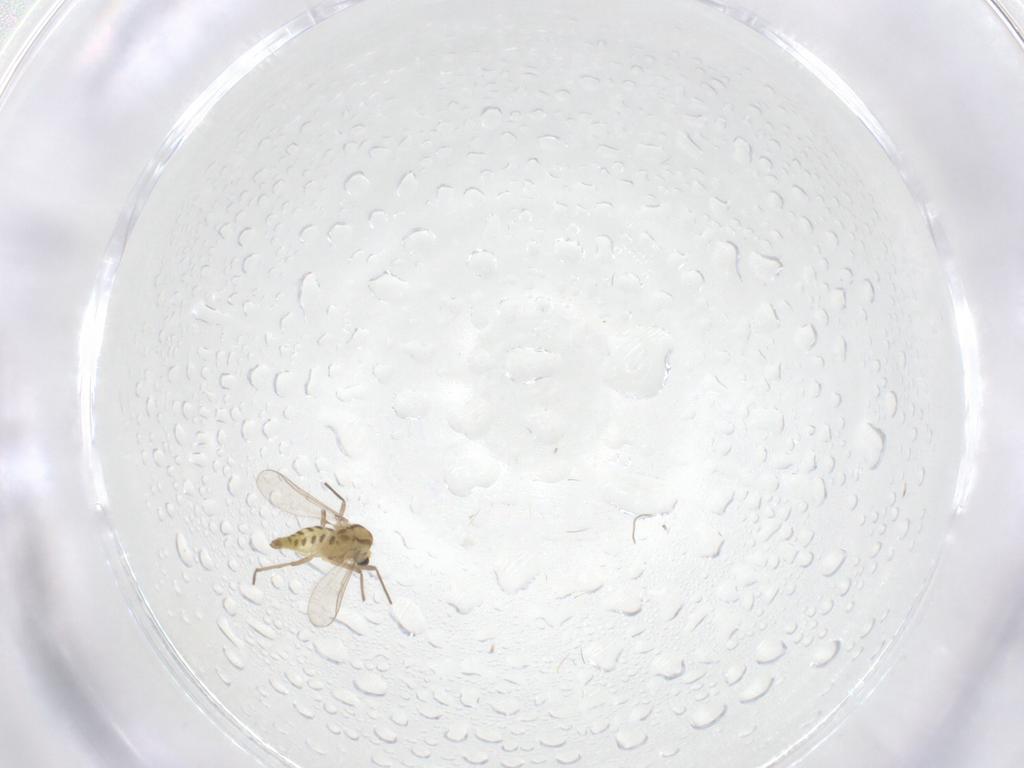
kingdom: Animalia
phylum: Arthropoda
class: Insecta
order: Diptera
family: Chironomidae
